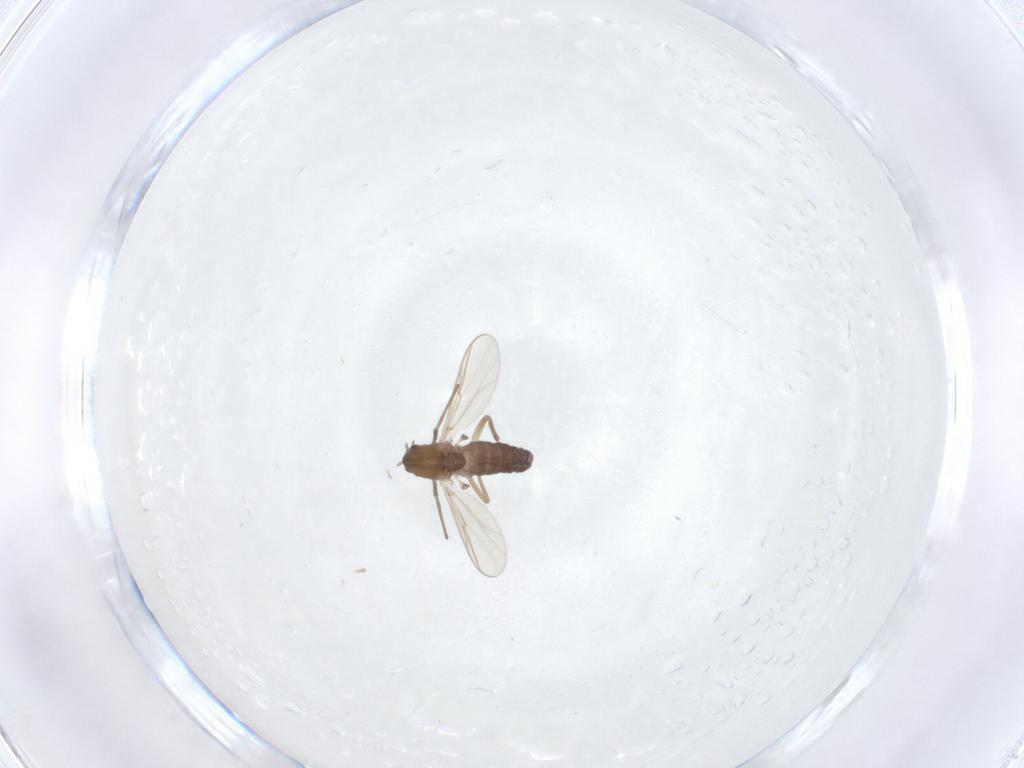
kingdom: Animalia
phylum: Arthropoda
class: Insecta
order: Diptera
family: Chironomidae
